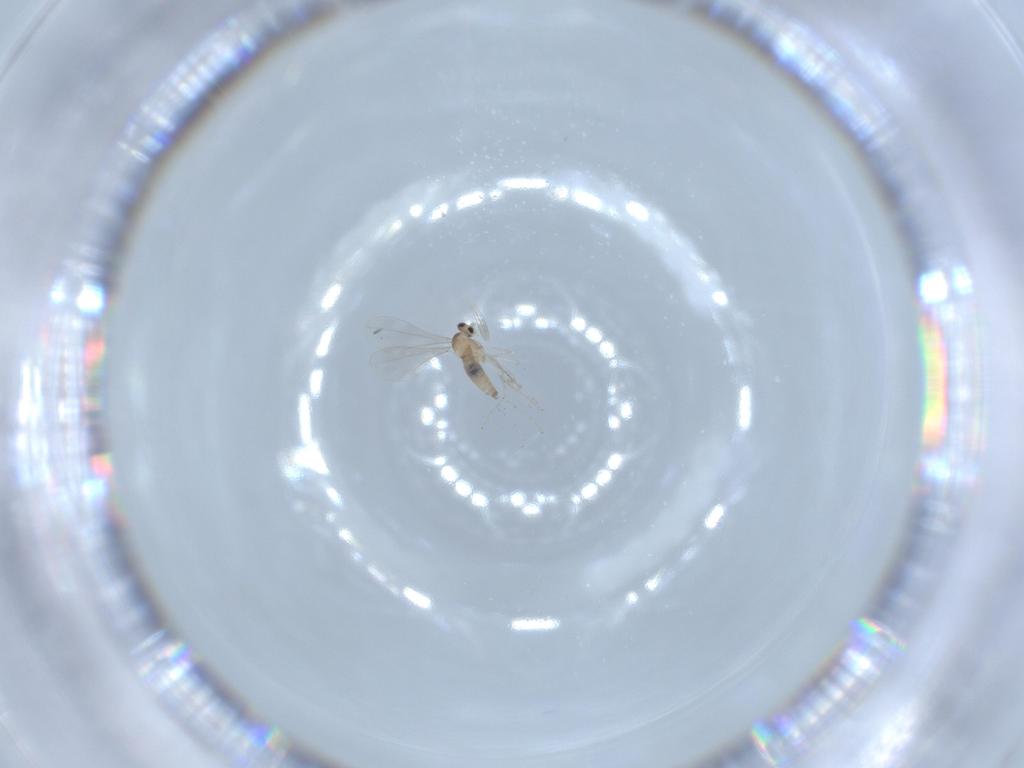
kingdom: Animalia
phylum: Arthropoda
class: Insecta
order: Diptera
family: Cecidomyiidae
